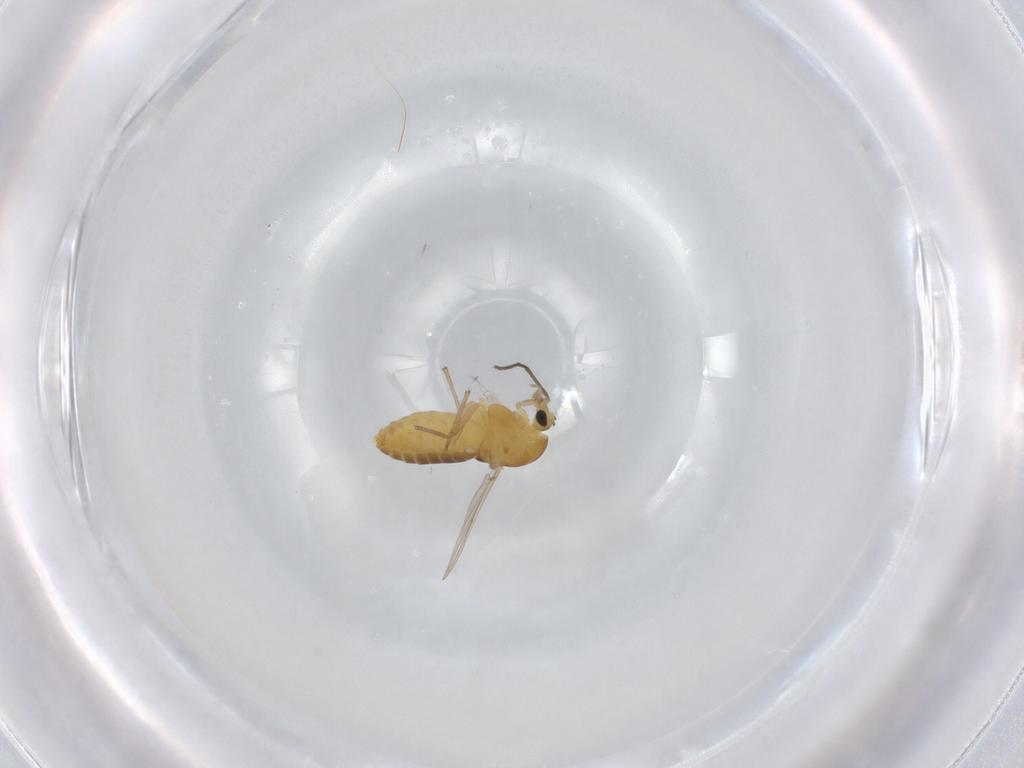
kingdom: Animalia
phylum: Arthropoda
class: Insecta
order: Diptera
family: Chironomidae
